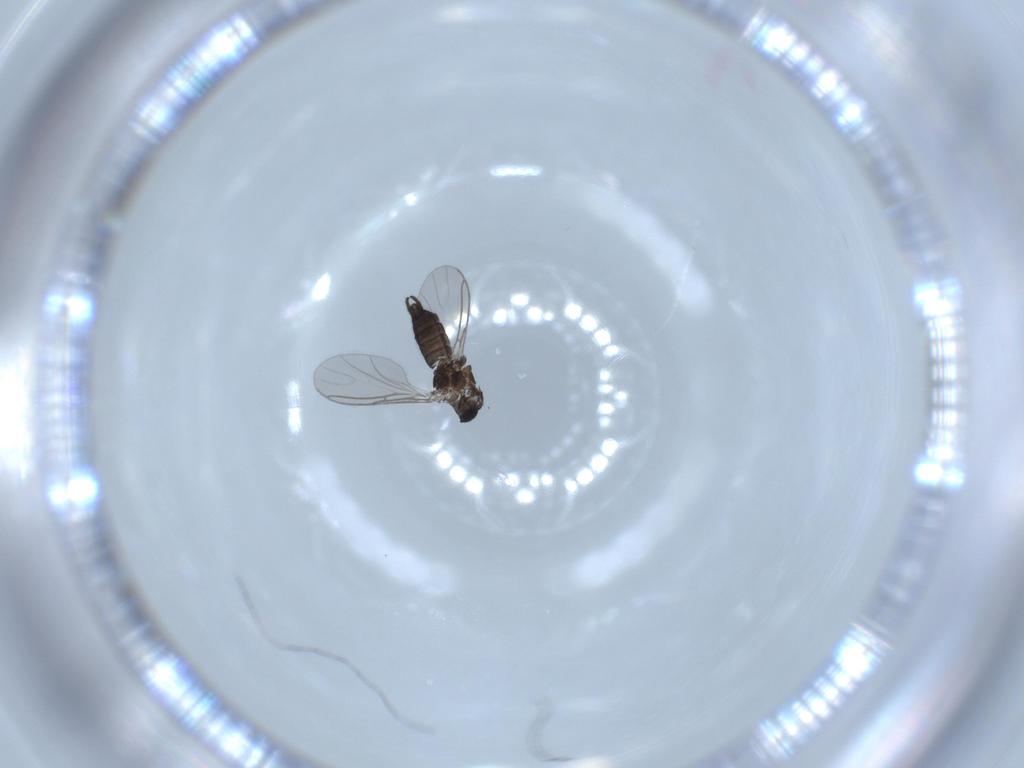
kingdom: Animalia
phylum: Arthropoda
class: Insecta
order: Diptera
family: Sciaridae
